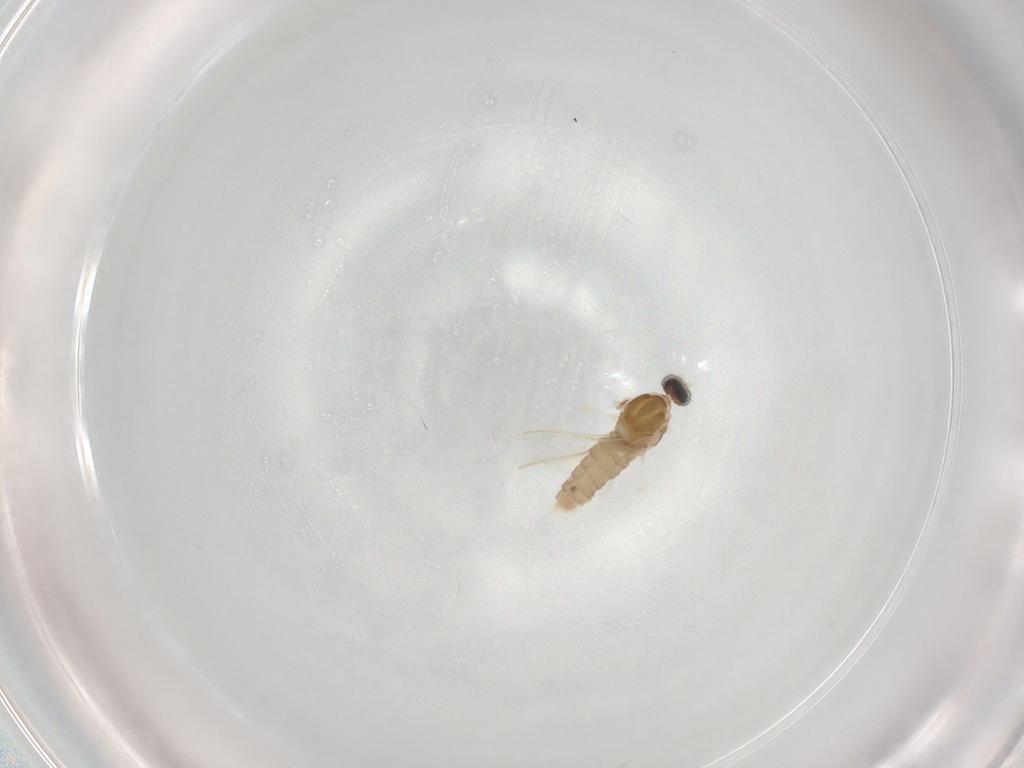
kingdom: Animalia
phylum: Arthropoda
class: Insecta
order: Diptera
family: Cecidomyiidae
